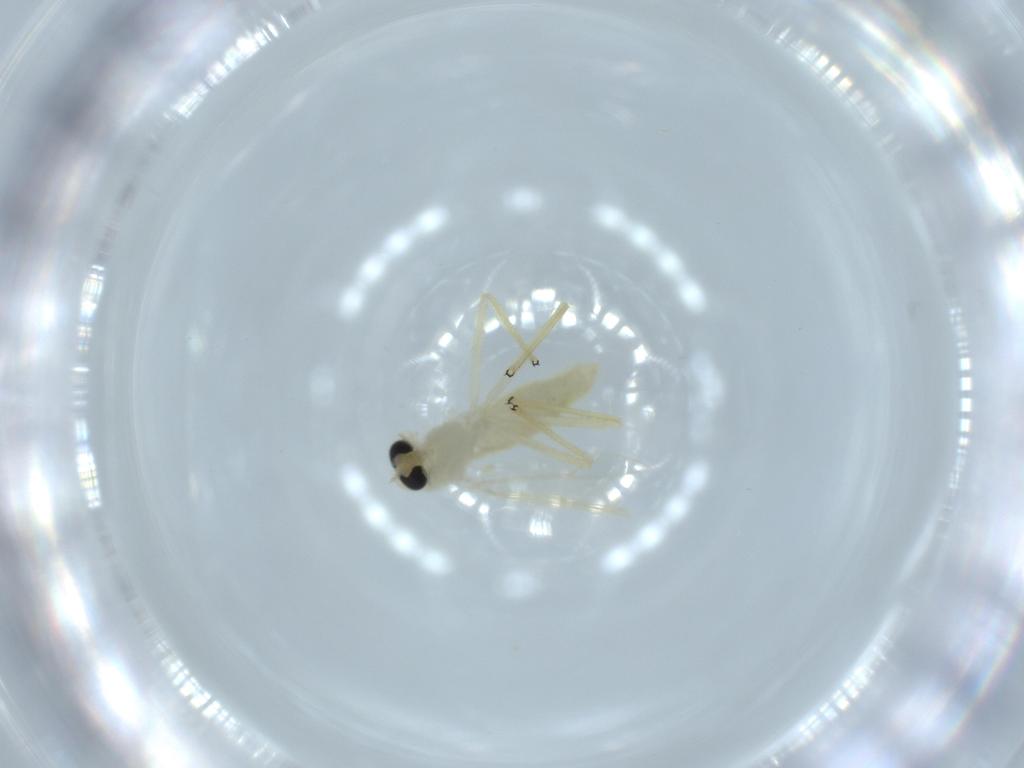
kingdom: Animalia
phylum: Arthropoda
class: Insecta
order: Diptera
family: Chironomidae
